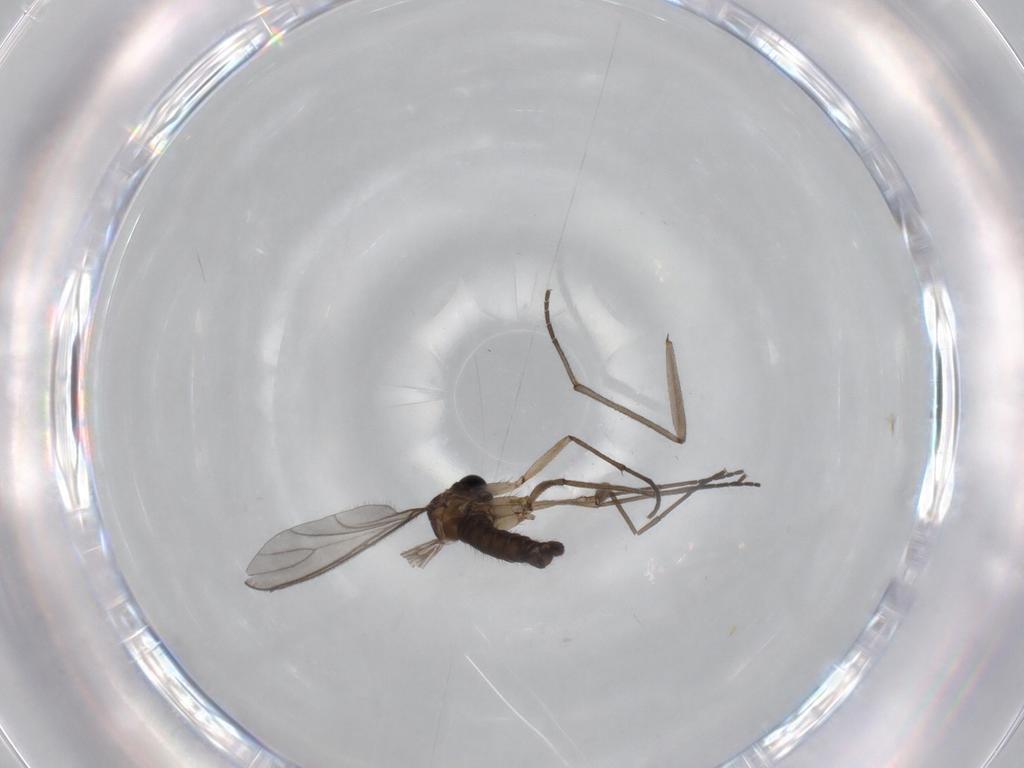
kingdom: Animalia
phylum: Arthropoda
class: Insecta
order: Diptera
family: Sciaridae
